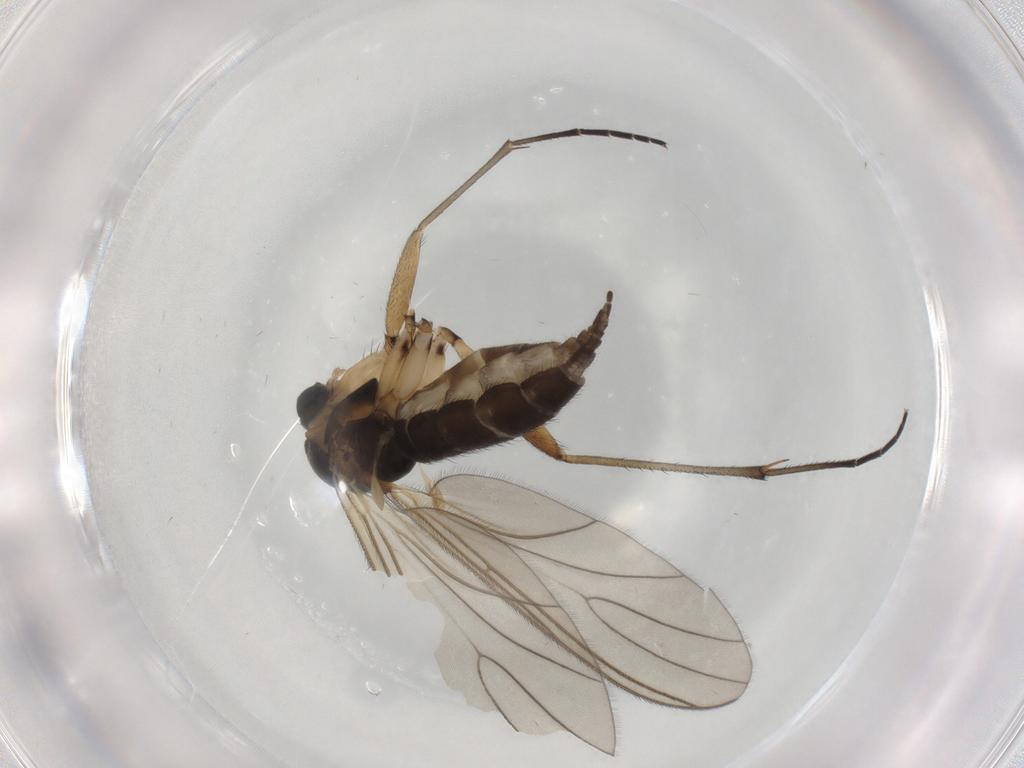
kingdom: Animalia
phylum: Arthropoda
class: Insecta
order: Diptera
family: Sciaridae
